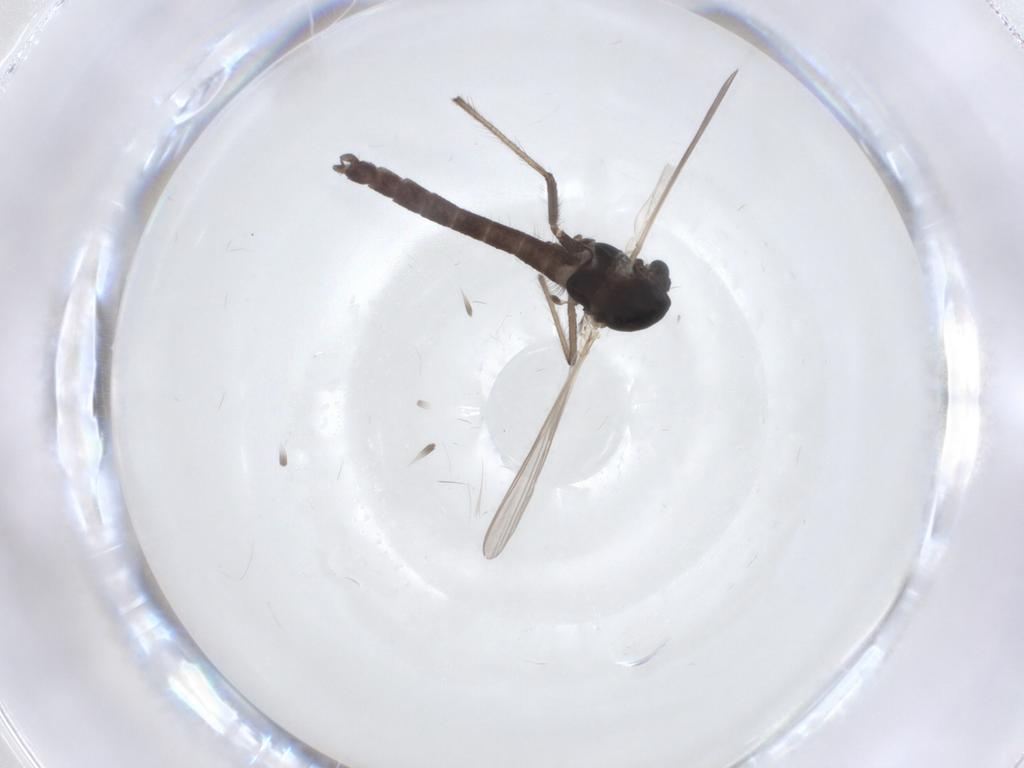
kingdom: Animalia
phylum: Arthropoda
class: Insecta
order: Diptera
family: Chironomidae
